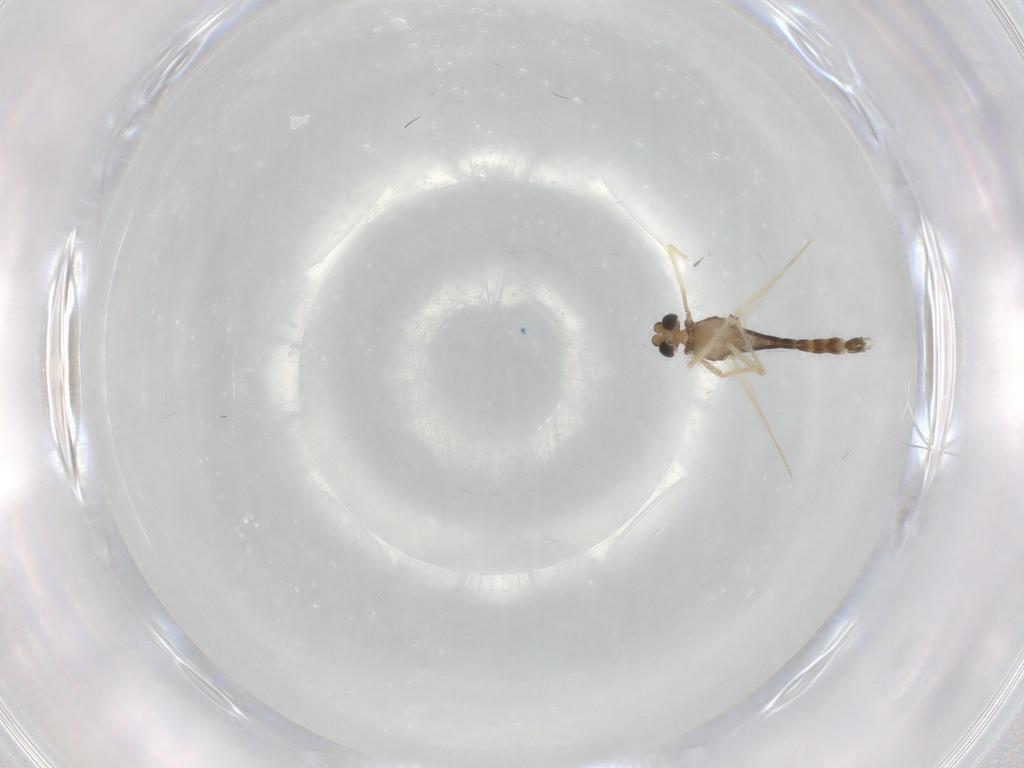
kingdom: Animalia
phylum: Arthropoda
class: Insecta
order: Diptera
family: Chironomidae
